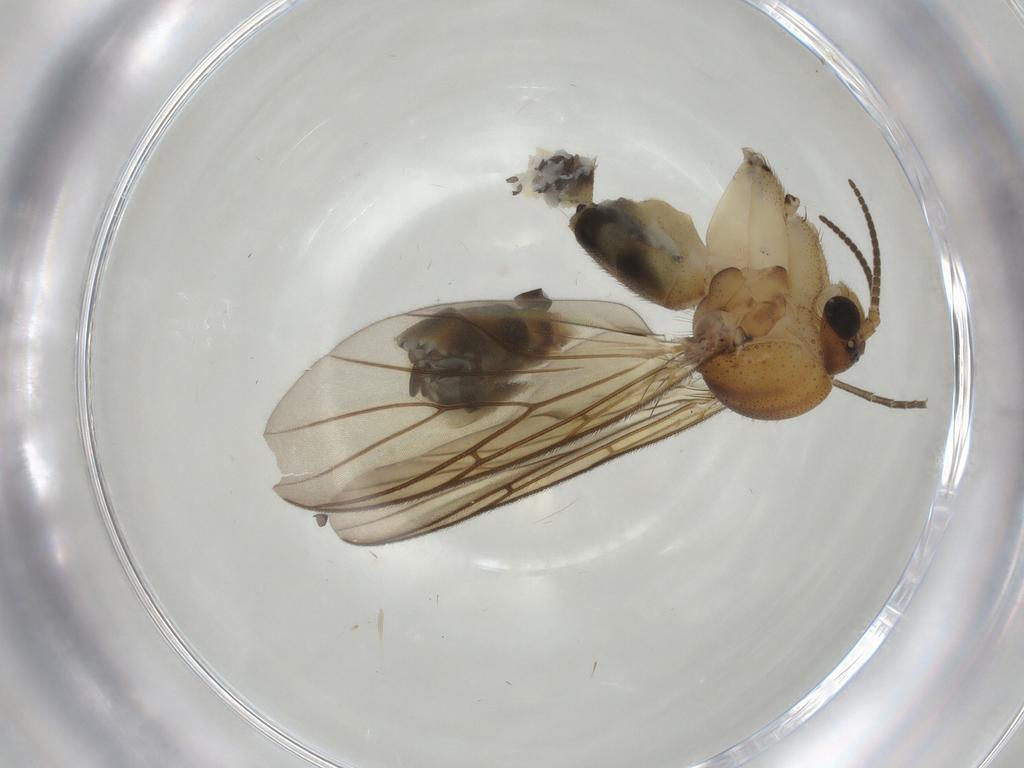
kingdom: Animalia
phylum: Arthropoda
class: Insecta
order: Diptera
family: Mycetophilidae
